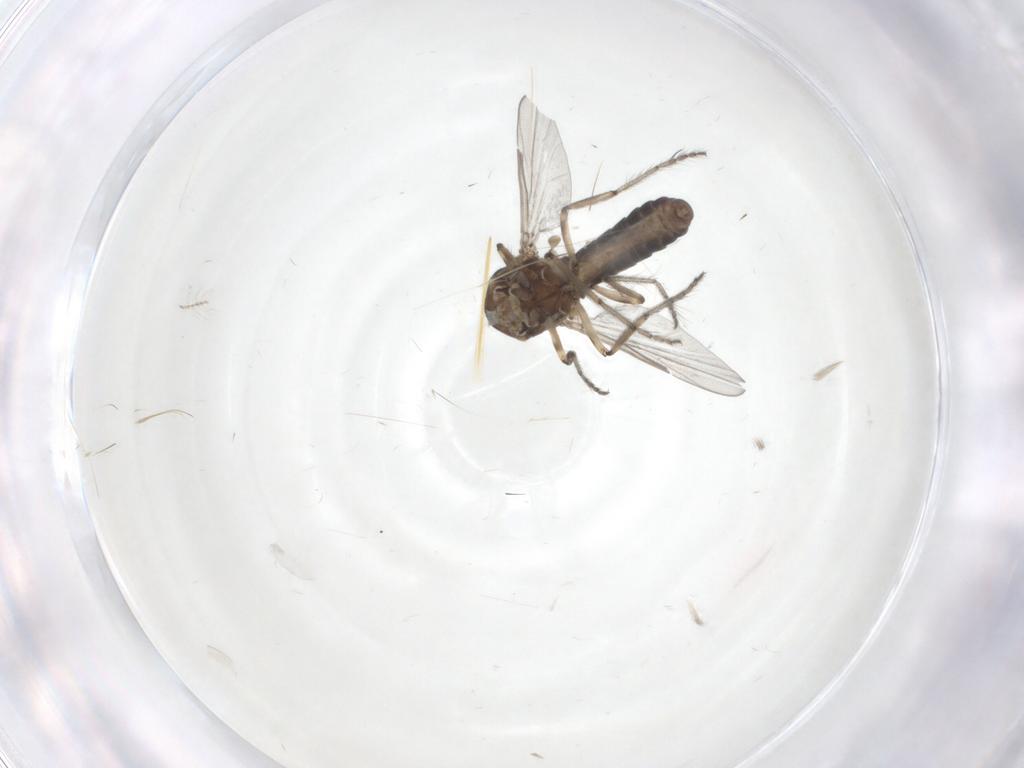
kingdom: Animalia
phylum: Arthropoda
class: Insecta
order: Diptera
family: Ceratopogonidae
